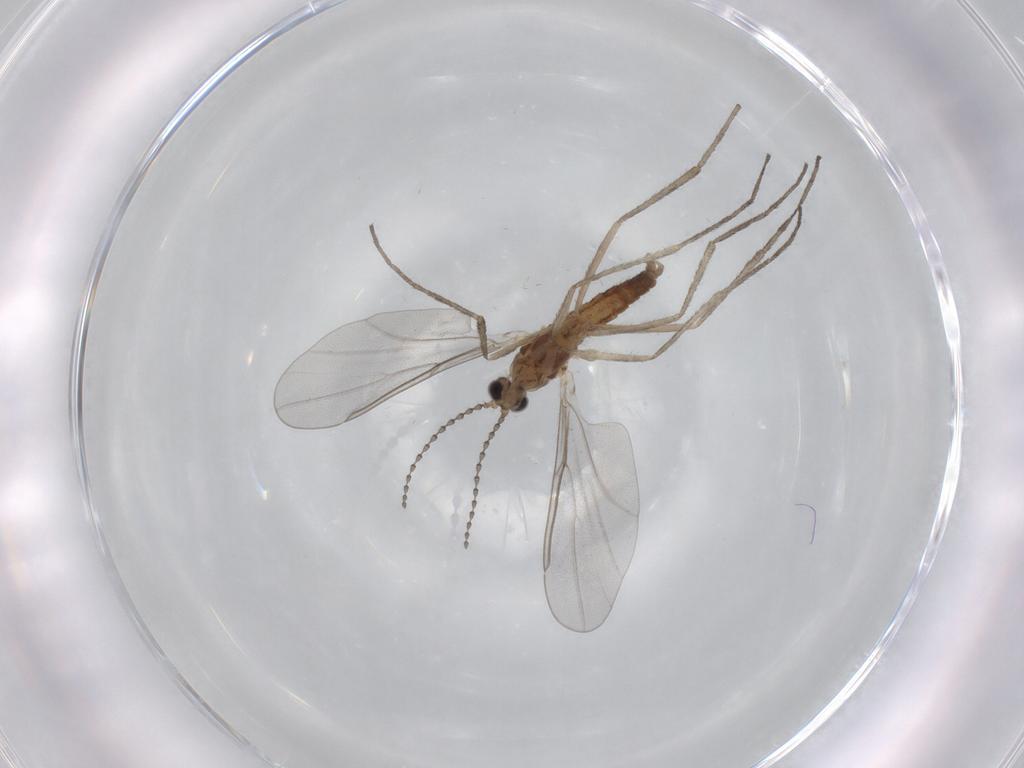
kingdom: Animalia
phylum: Arthropoda
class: Insecta
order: Diptera
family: Cecidomyiidae
